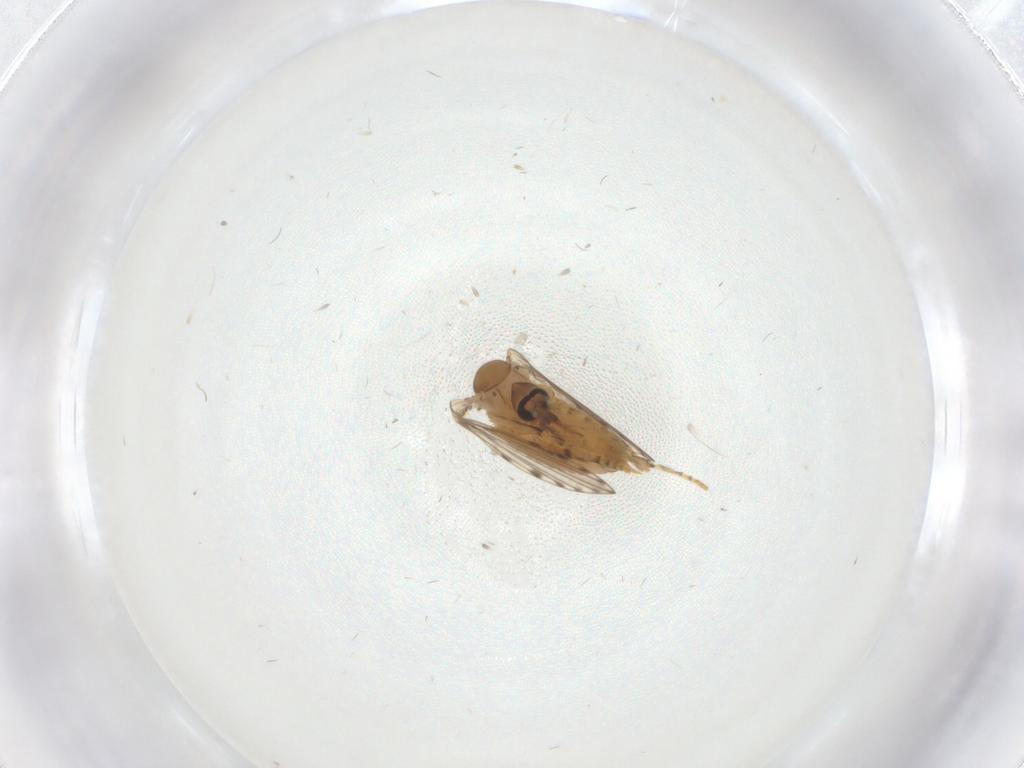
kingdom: Animalia
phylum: Arthropoda
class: Insecta
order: Diptera
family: Psychodidae
